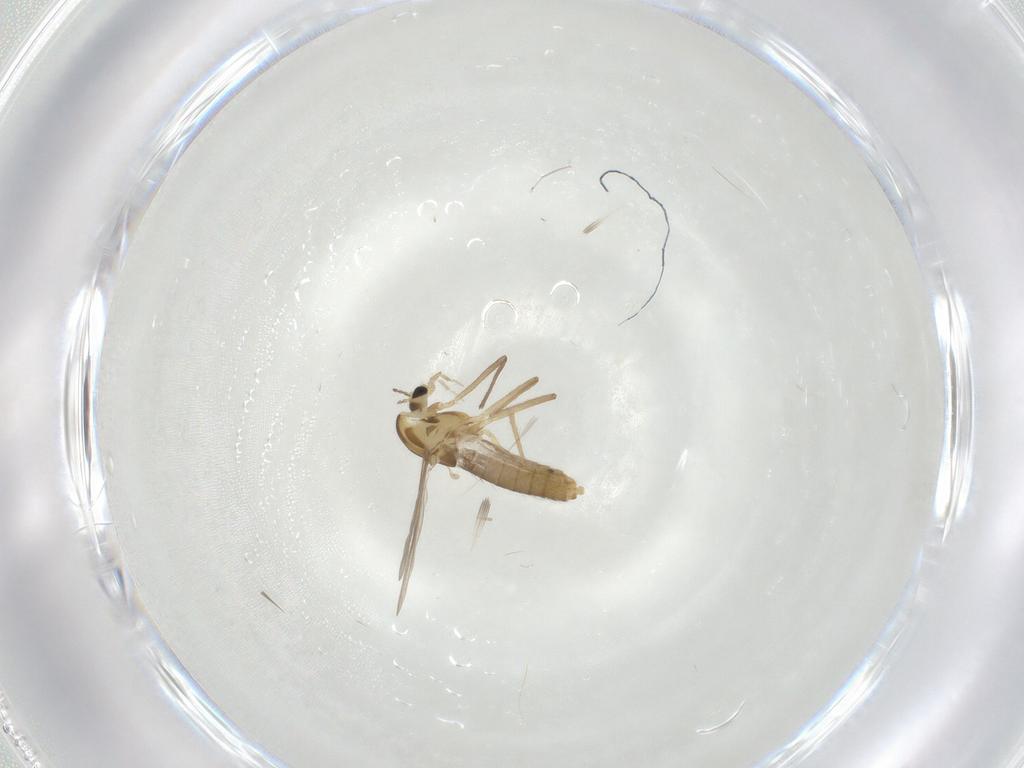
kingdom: Animalia
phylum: Arthropoda
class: Insecta
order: Diptera
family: Chironomidae
